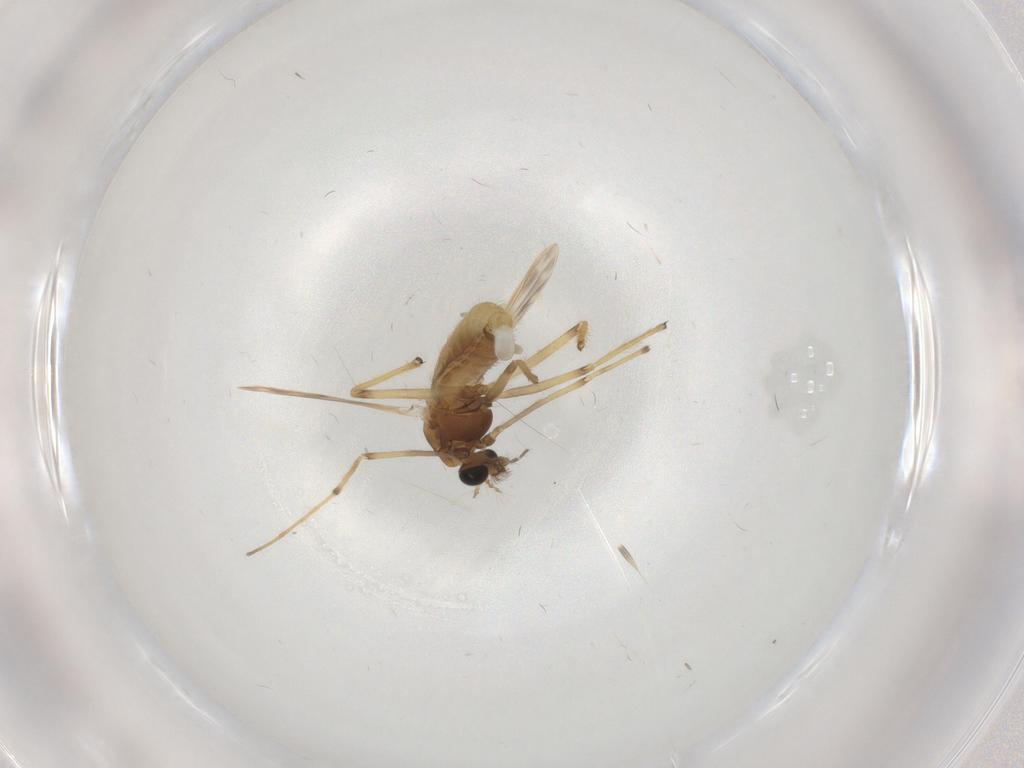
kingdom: Animalia
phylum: Arthropoda
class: Insecta
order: Diptera
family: Chironomidae
